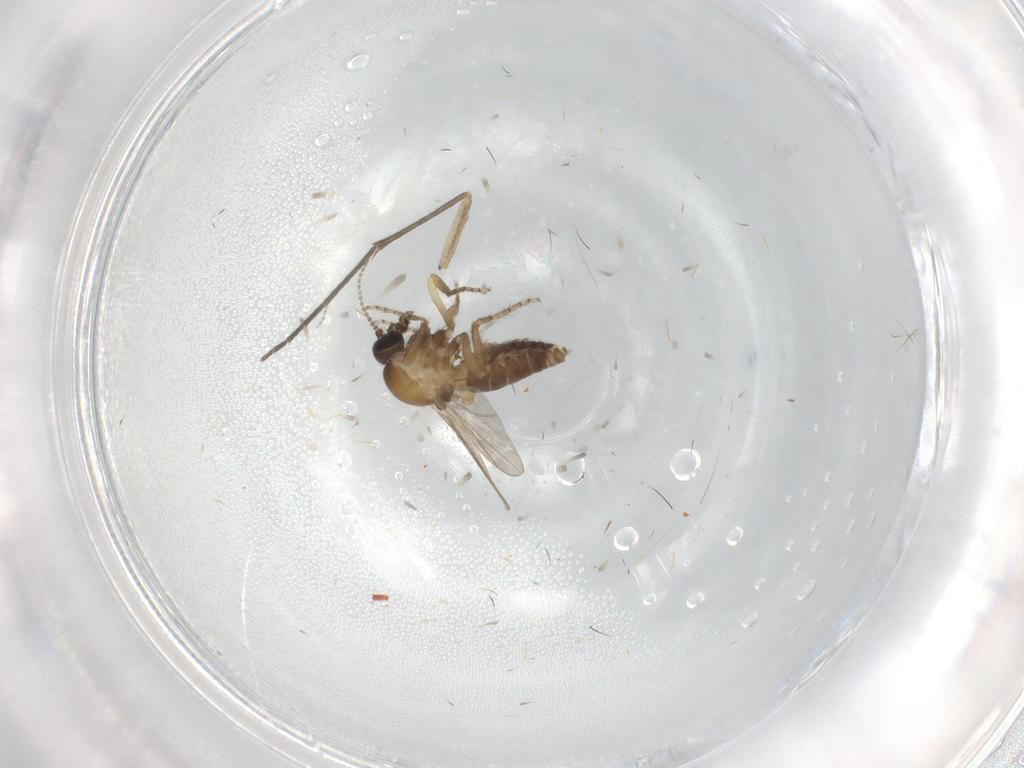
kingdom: Animalia
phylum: Arthropoda
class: Insecta
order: Diptera
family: Ceratopogonidae
